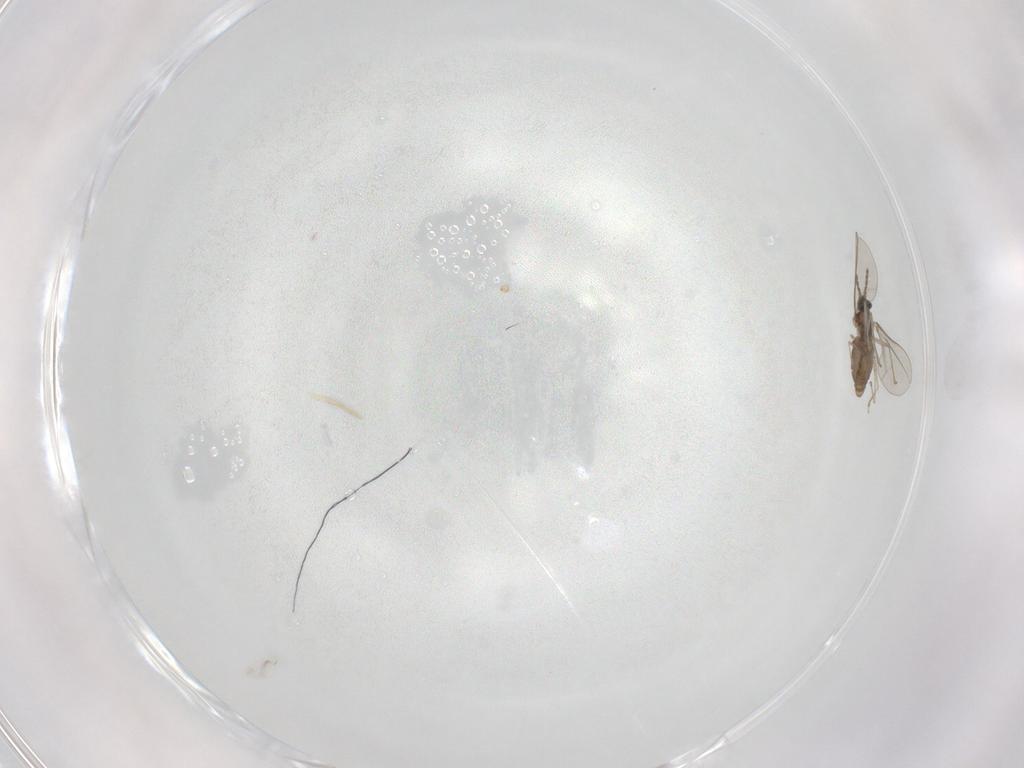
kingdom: Animalia
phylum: Arthropoda
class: Insecta
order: Diptera
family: Cecidomyiidae
